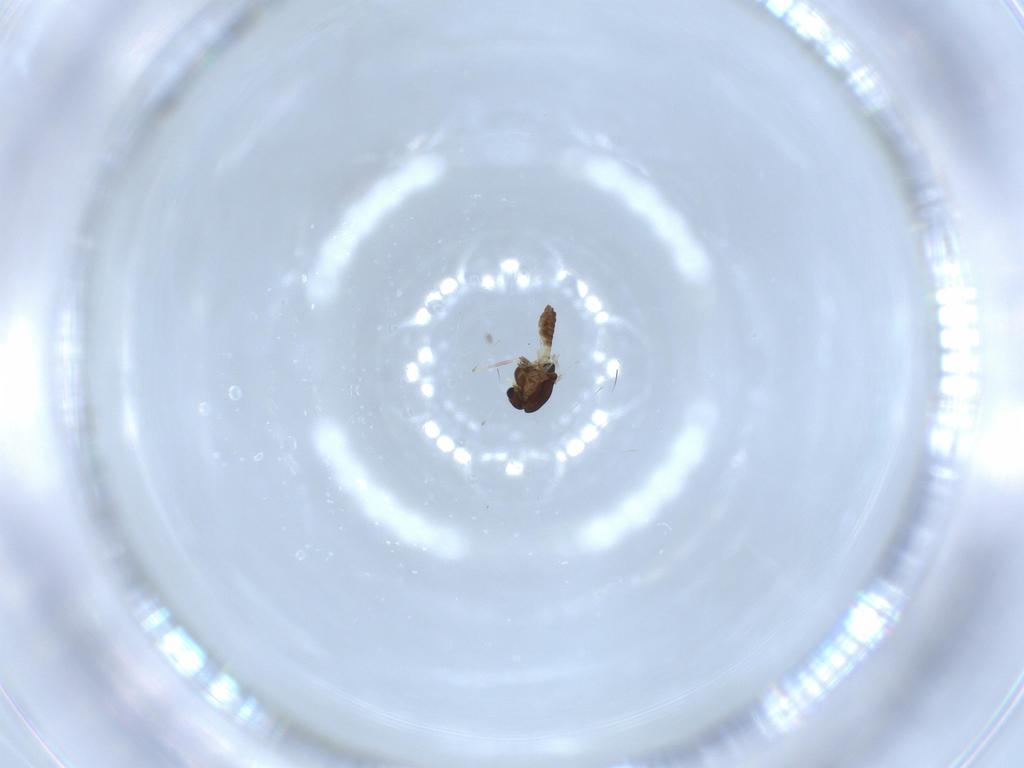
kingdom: Animalia
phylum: Arthropoda
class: Insecta
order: Diptera
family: Chironomidae
